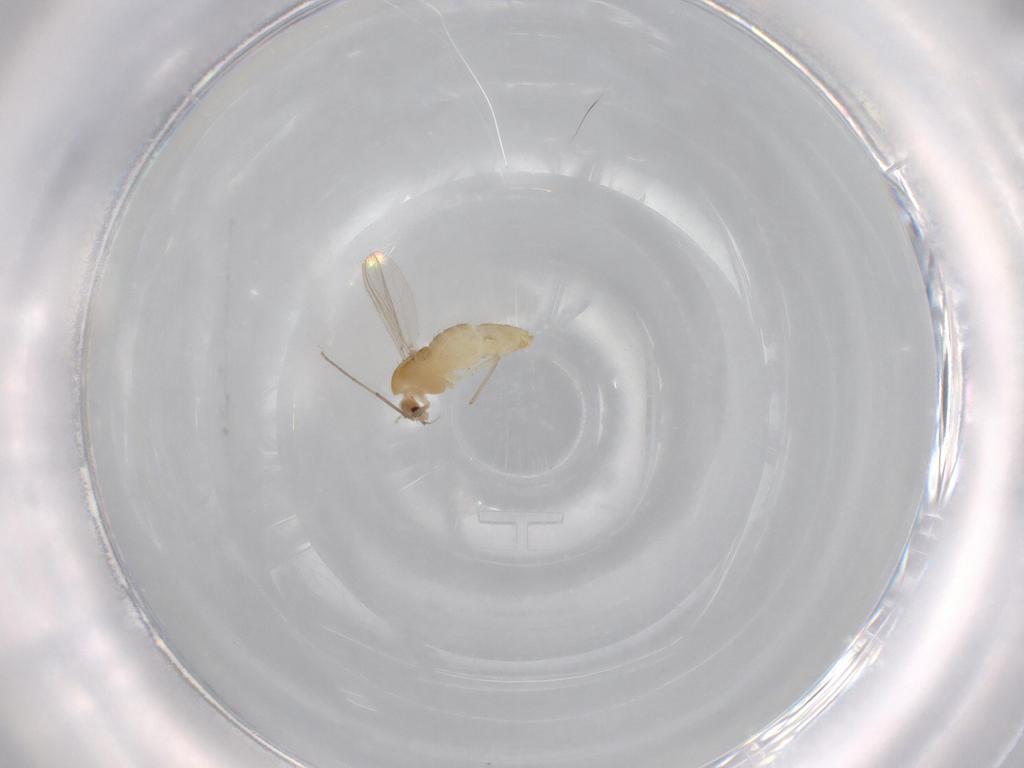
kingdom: Animalia
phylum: Arthropoda
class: Insecta
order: Diptera
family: Chironomidae
